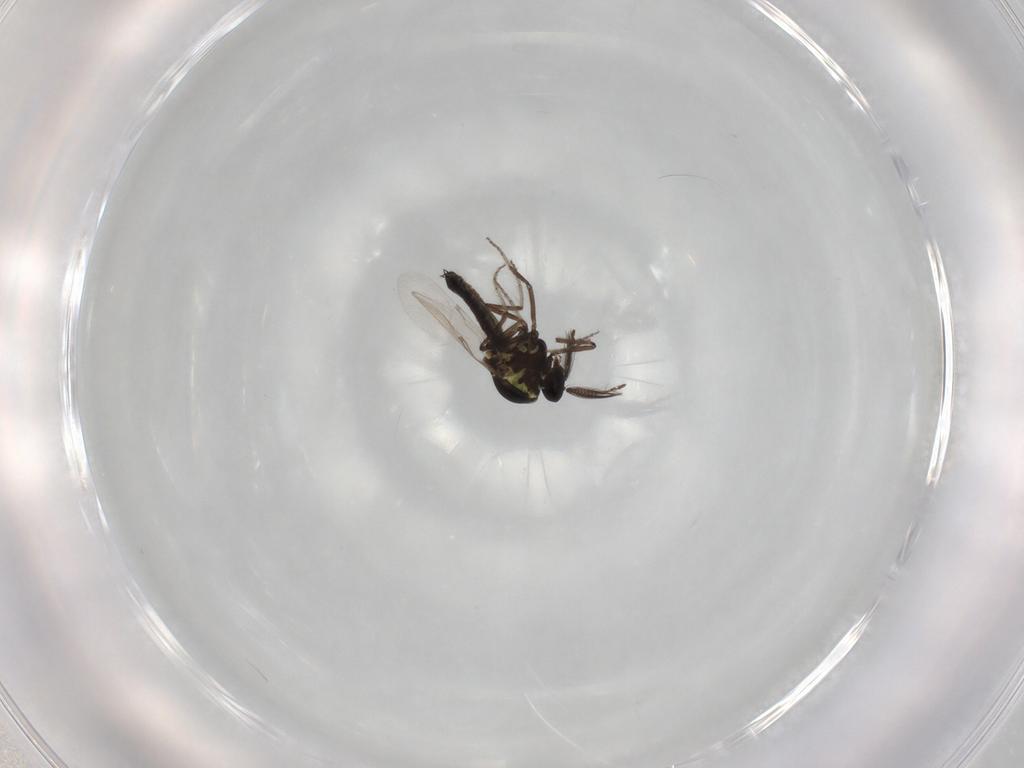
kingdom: Animalia
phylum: Arthropoda
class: Insecta
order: Diptera
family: Ceratopogonidae
